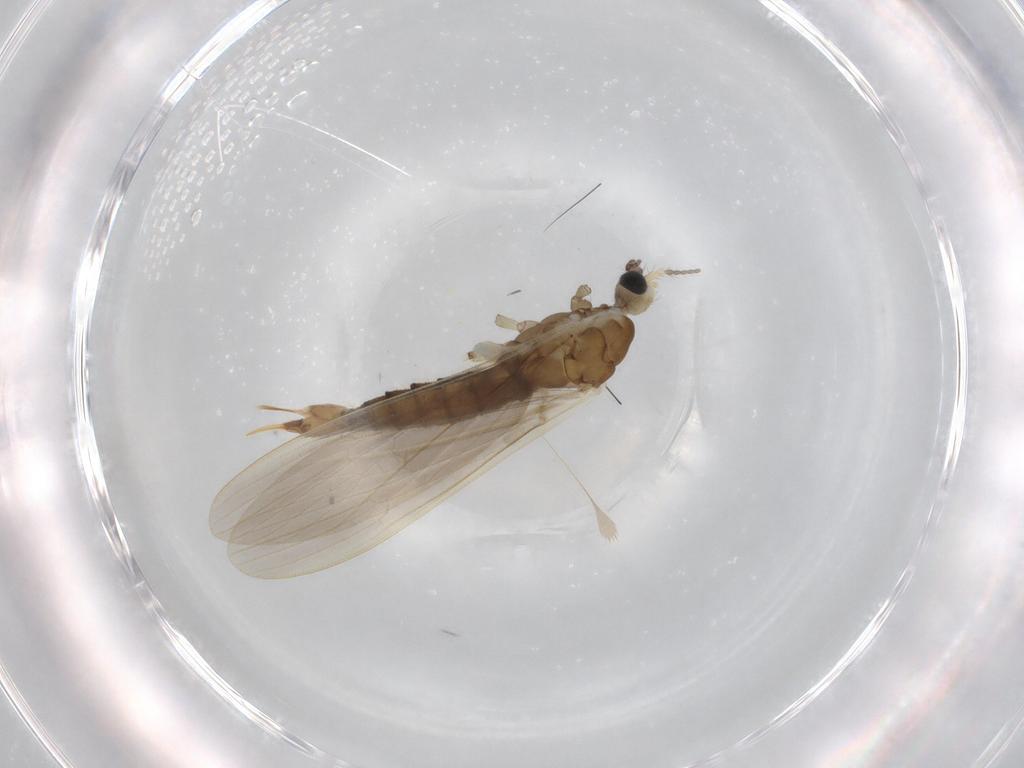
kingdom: Animalia
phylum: Arthropoda
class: Insecta
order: Diptera
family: Limoniidae
